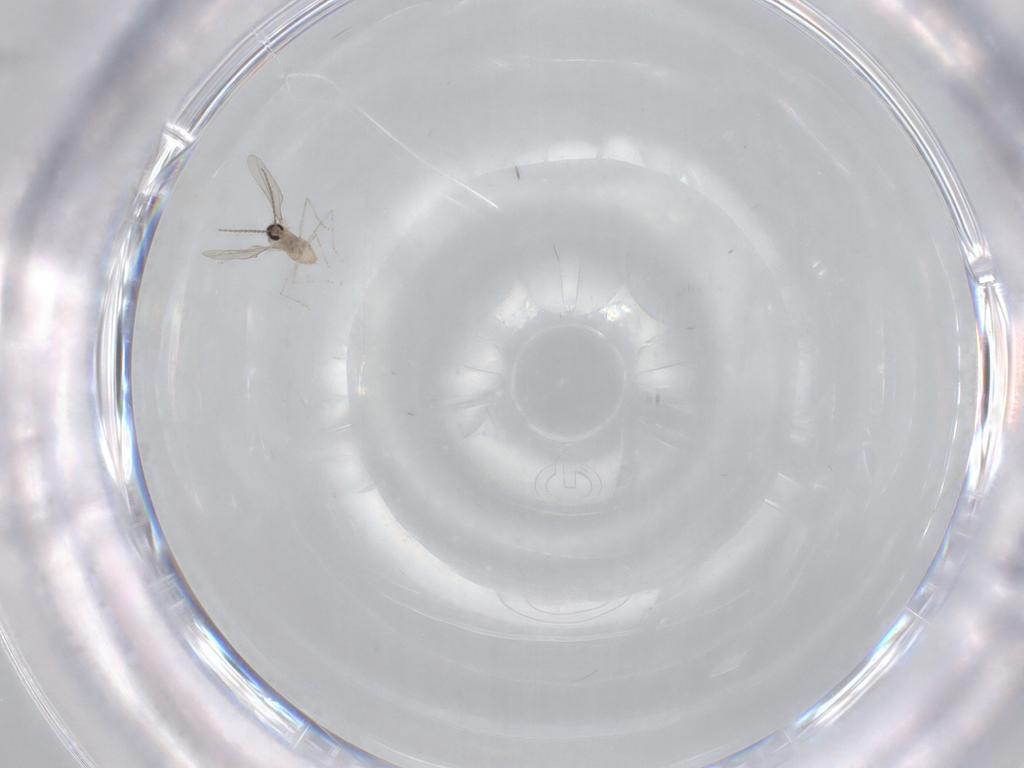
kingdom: Animalia
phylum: Arthropoda
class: Insecta
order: Diptera
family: Cecidomyiidae
